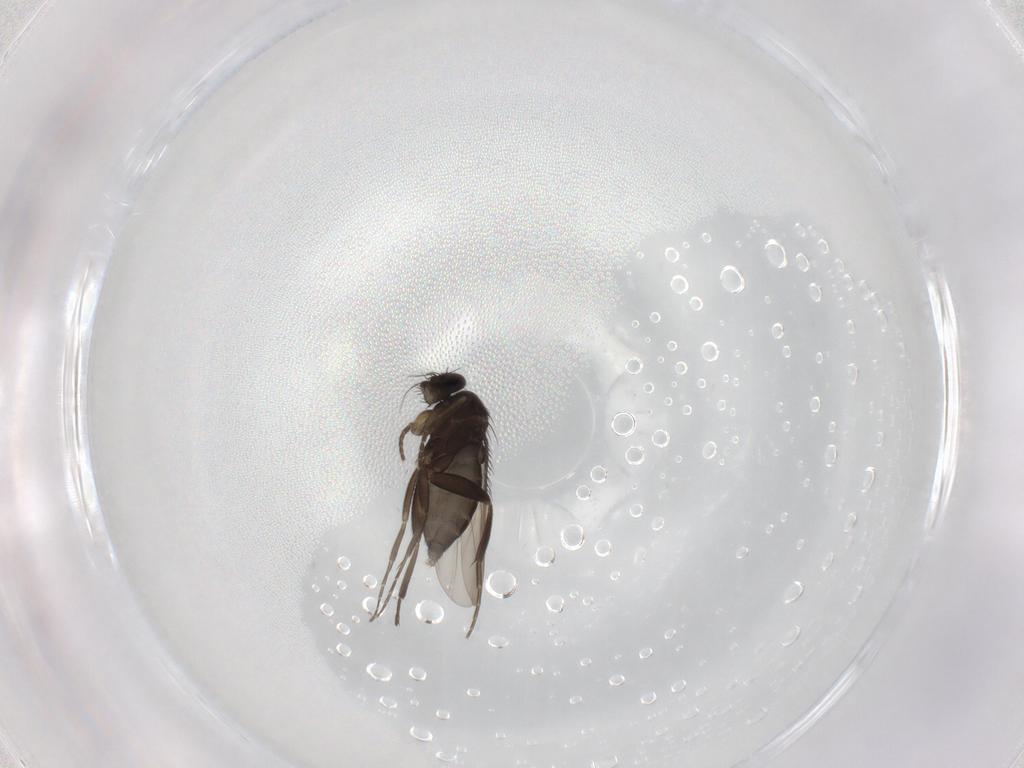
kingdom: Animalia
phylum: Arthropoda
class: Insecta
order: Diptera
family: Phoridae
